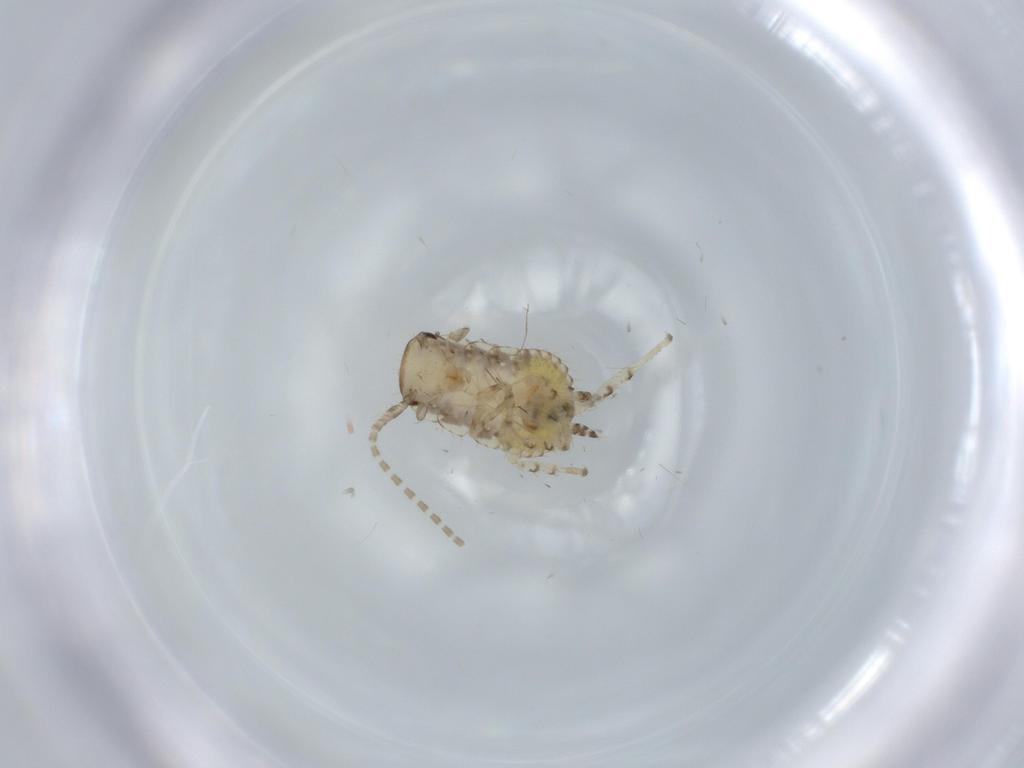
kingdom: Animalia
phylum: Arthropoda
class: Insecta
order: Blattodea
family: Ectobiidae
